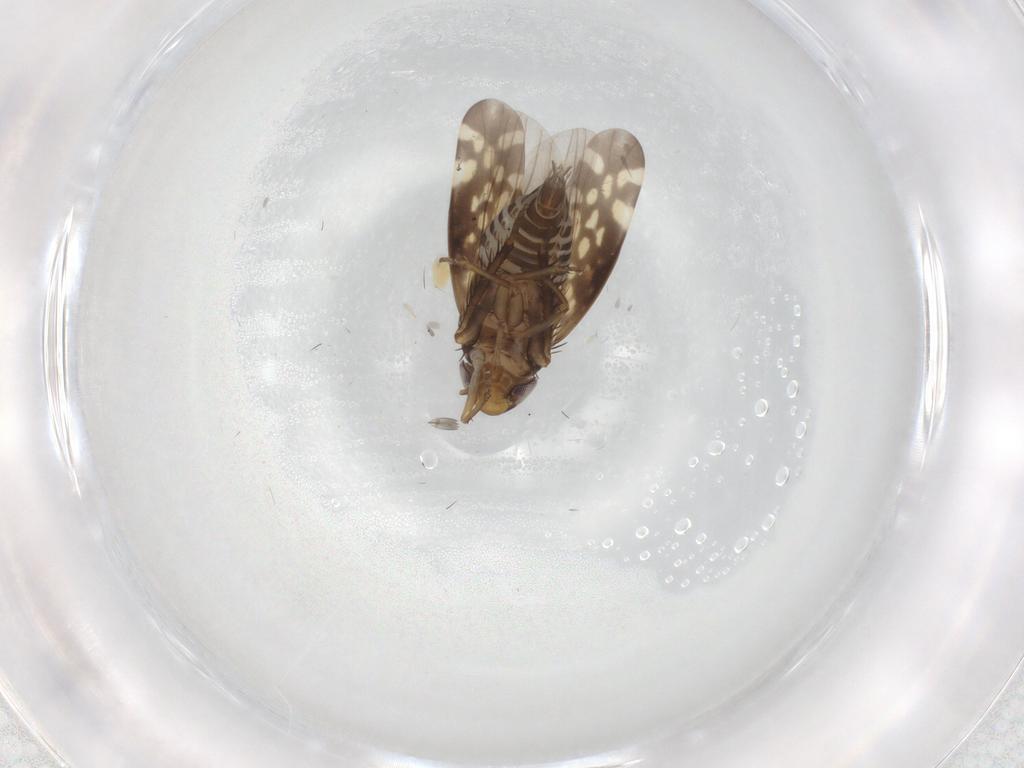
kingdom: Animalia
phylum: Arthropoda
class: Insecta
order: Hemiptera
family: Cicadellidae
